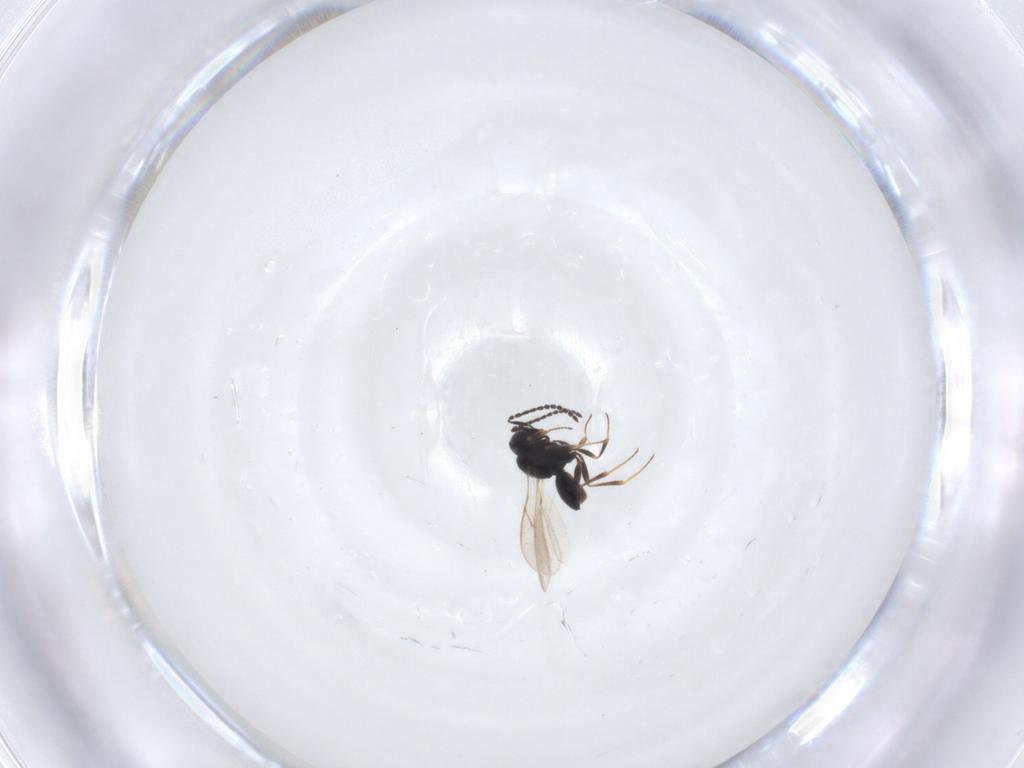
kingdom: Animalia
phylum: Arthropoda
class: Insecta
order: Hymenoptera
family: Scelionidae
